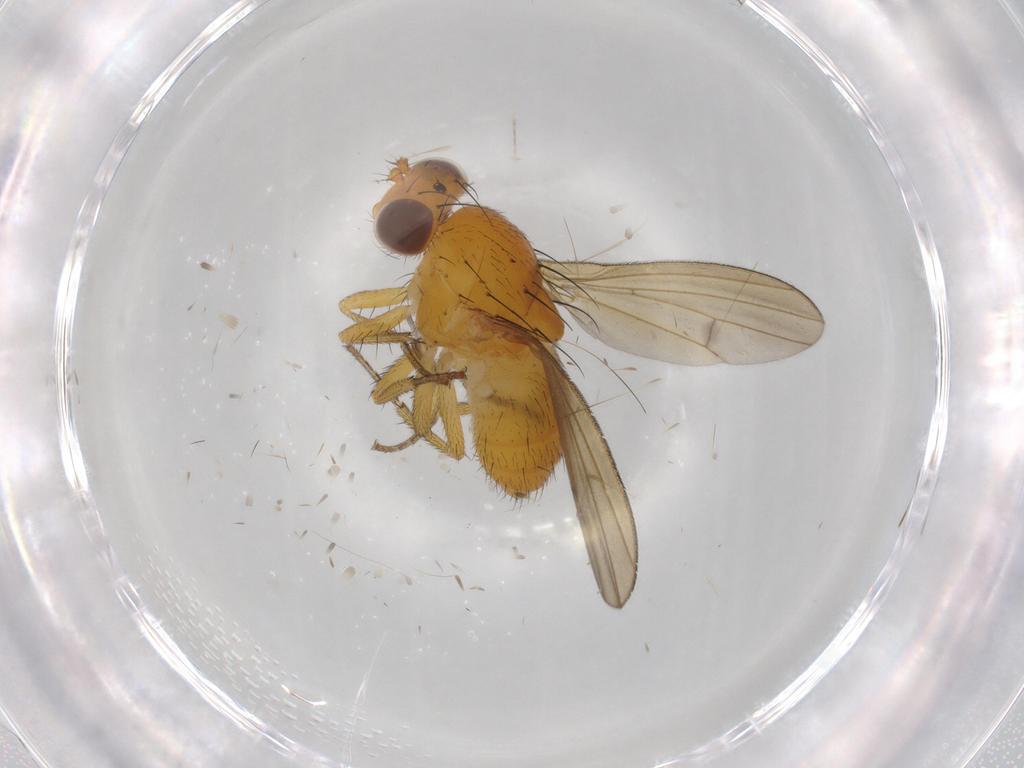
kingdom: Animalia
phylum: Arthropoda
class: Insecta
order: Diptera
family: Lauxaniidae
